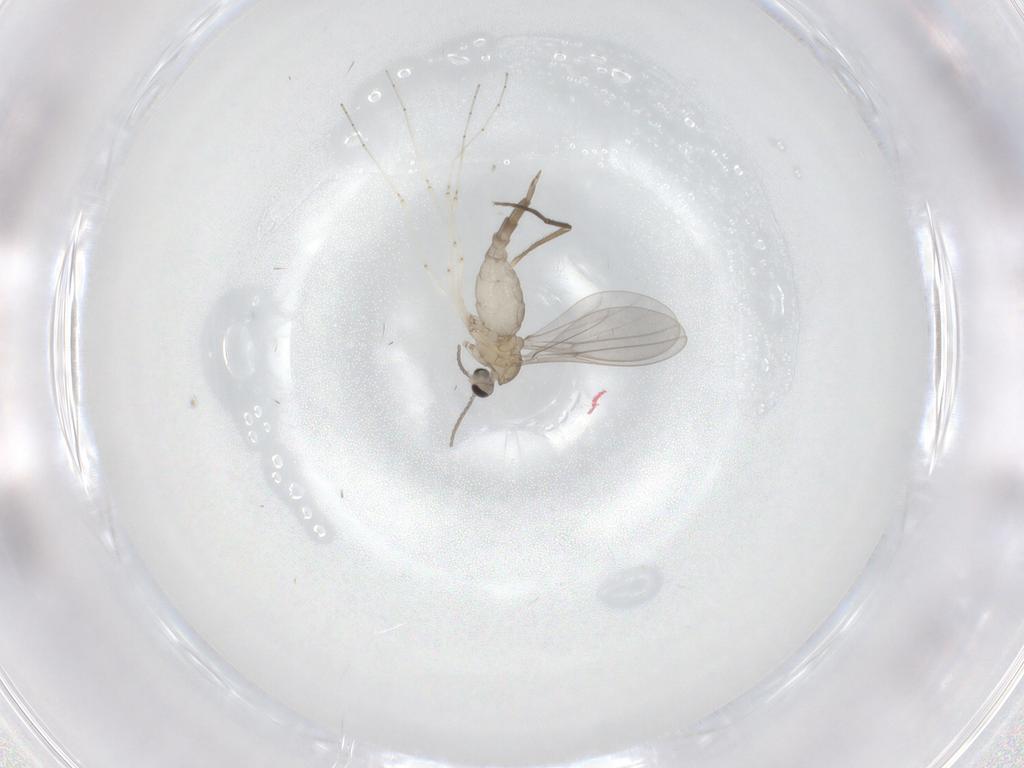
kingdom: Animalia
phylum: Arthropoda
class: Insecta
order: Diptera
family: Cecidomyiidae
